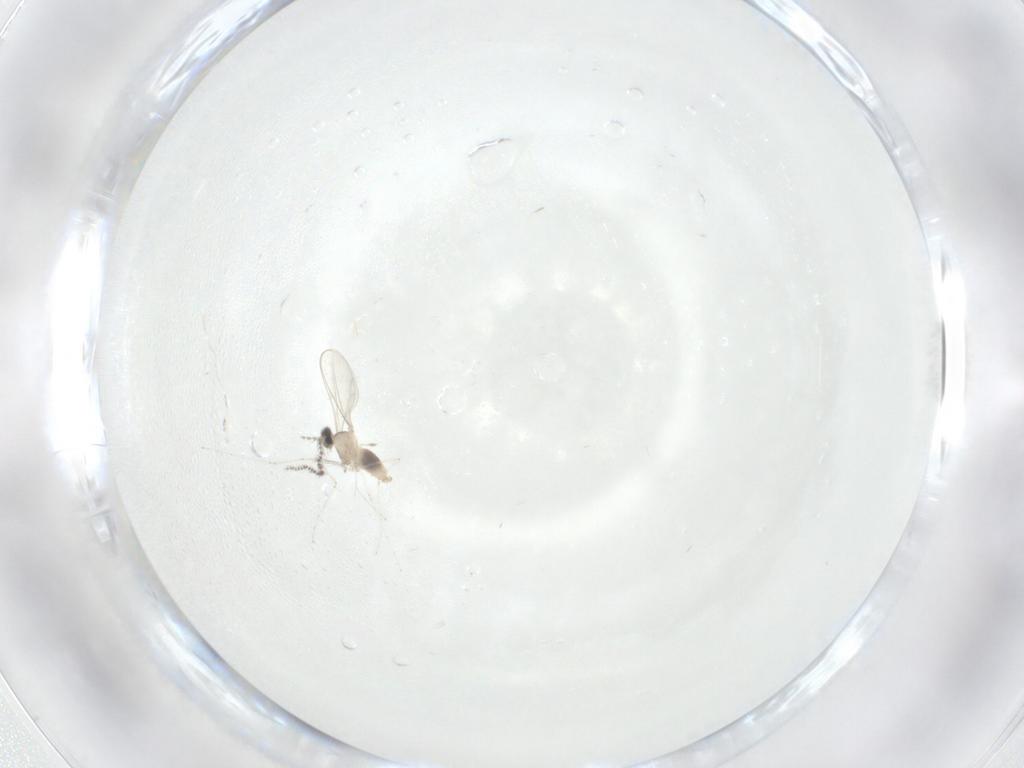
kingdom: Animalia
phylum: Arthropoda
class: Insecta
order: Diptera
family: Cecidomyiidae
